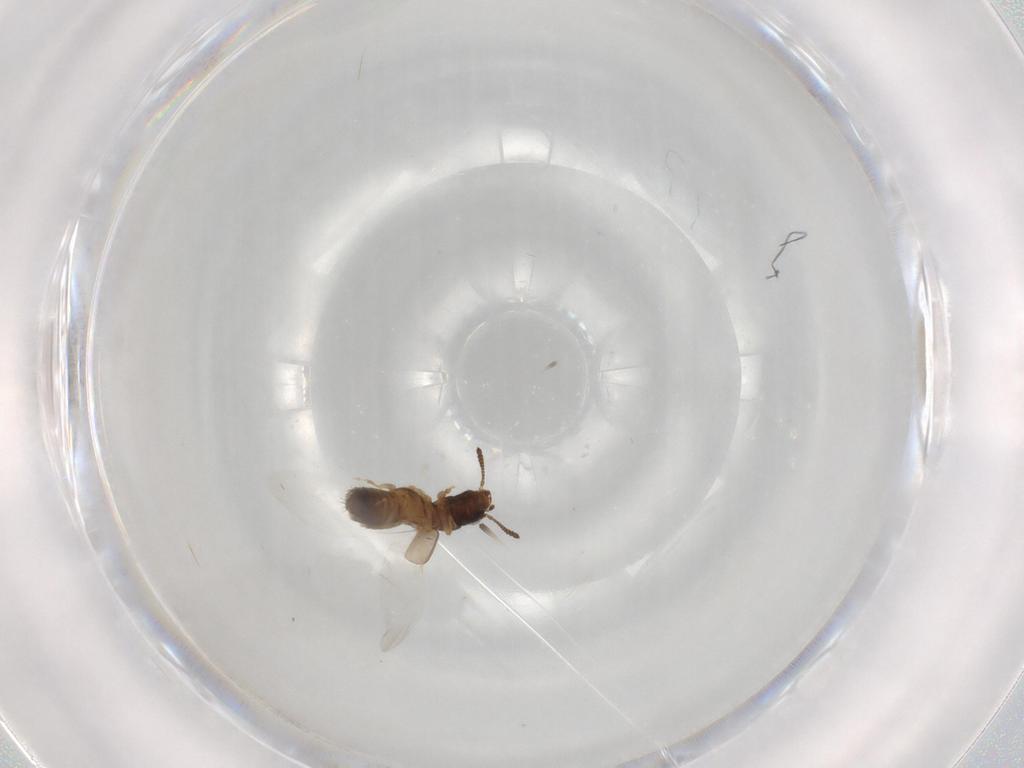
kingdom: Animalia
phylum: Arthropoda
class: Insecta
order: Coleoptera
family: Staphylinidae
